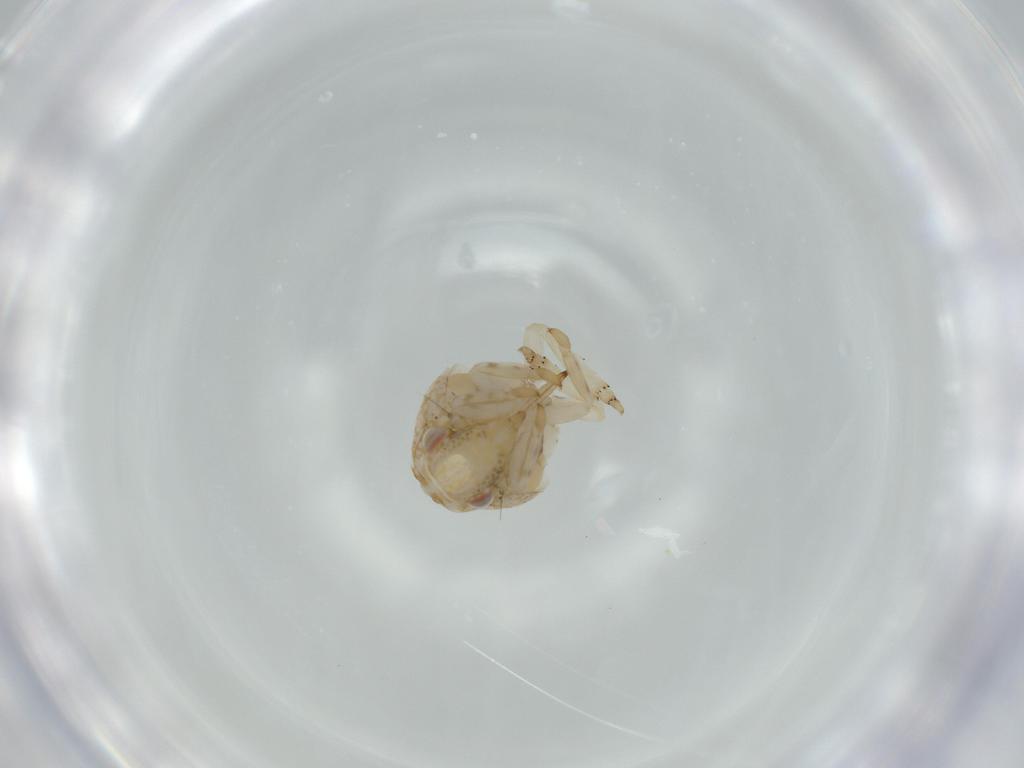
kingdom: Animalia
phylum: Arthropoda
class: Insecta
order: Hemiptera
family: Acanaloniidae
